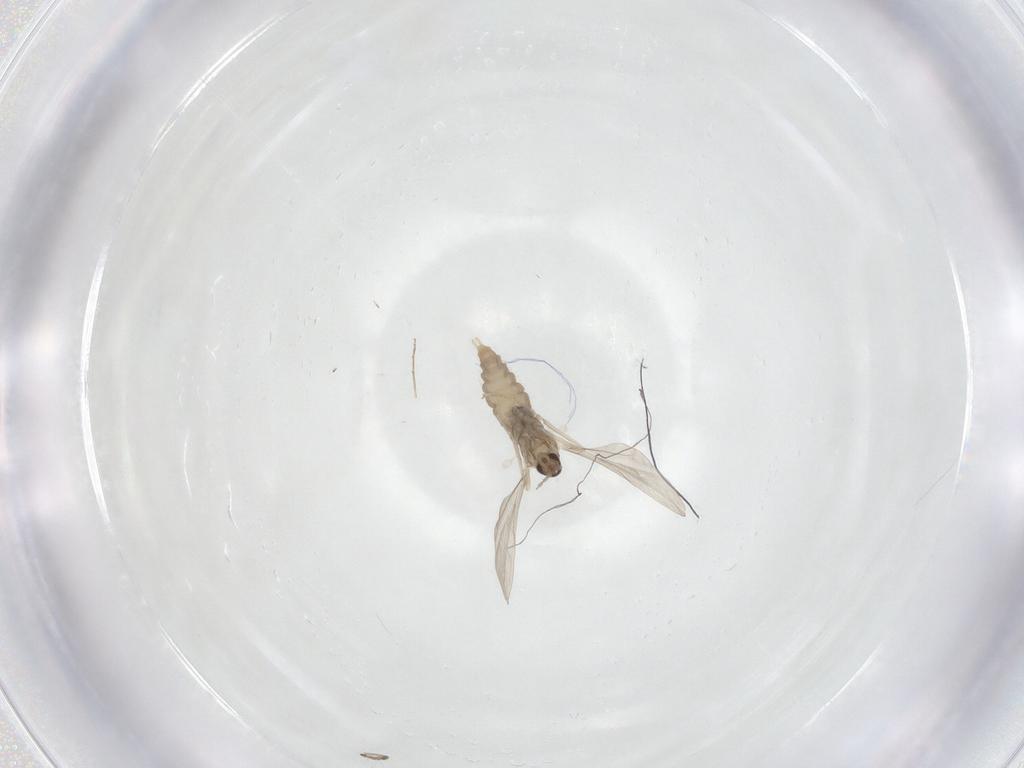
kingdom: Animalia
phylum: Arthropoda
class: Insecta
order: Diptera
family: Cecidomyiidae
